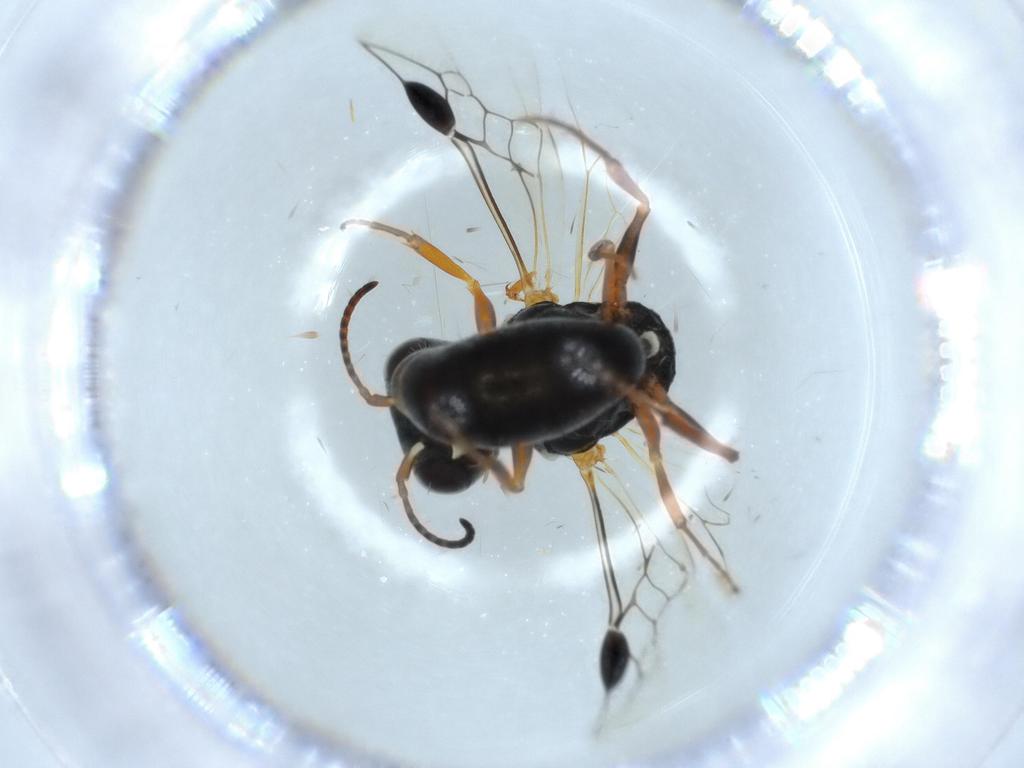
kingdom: Animalia
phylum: Arthropoda
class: Insecta
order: Hymenoptera
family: Crabronidae
